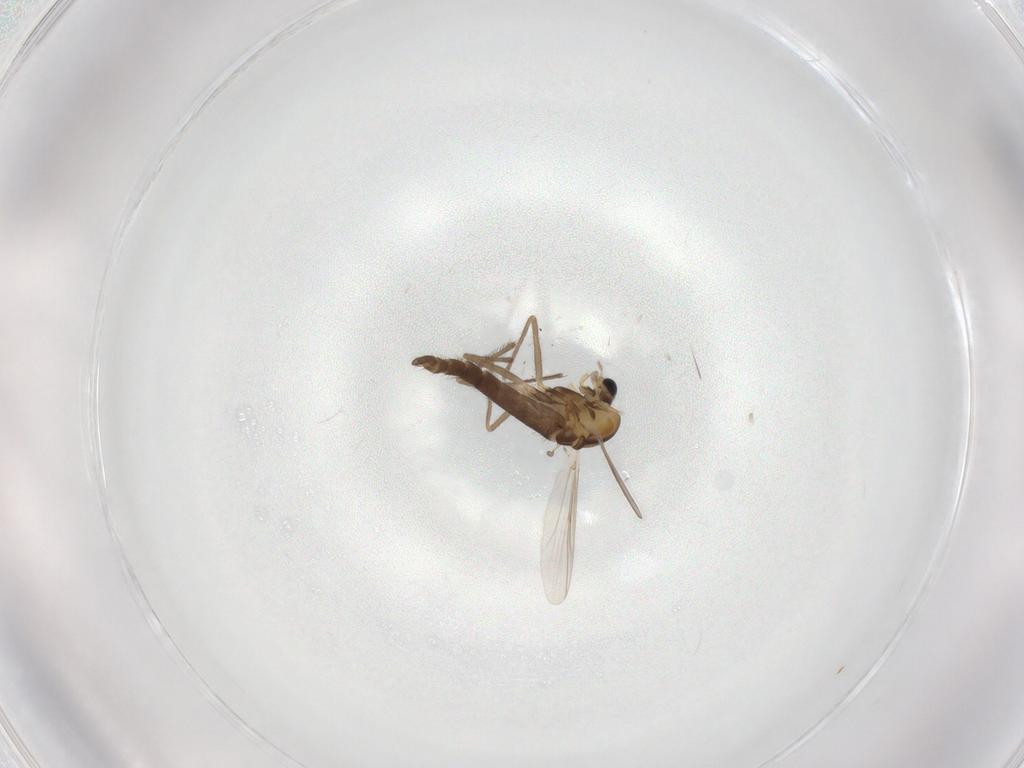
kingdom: Animalia
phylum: Arthropoda
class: Insecta
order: Diptera
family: Chironomidae
